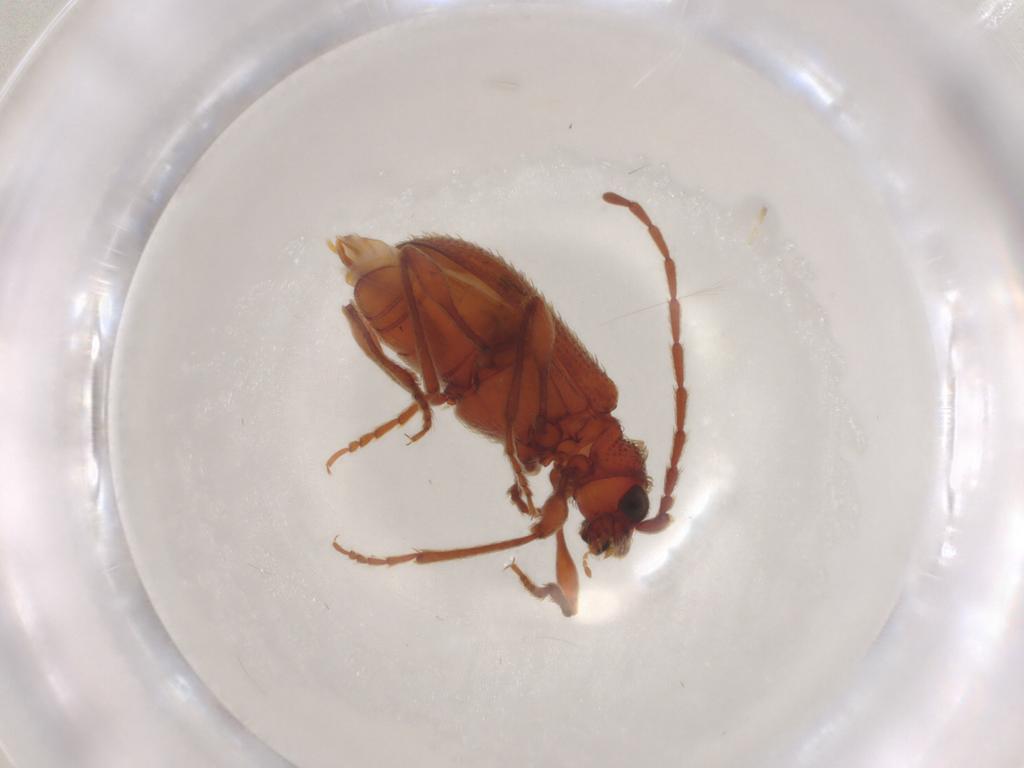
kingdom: Animalia
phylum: Arthropoda
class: Insecta
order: Coleoptera
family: Ptinidae
